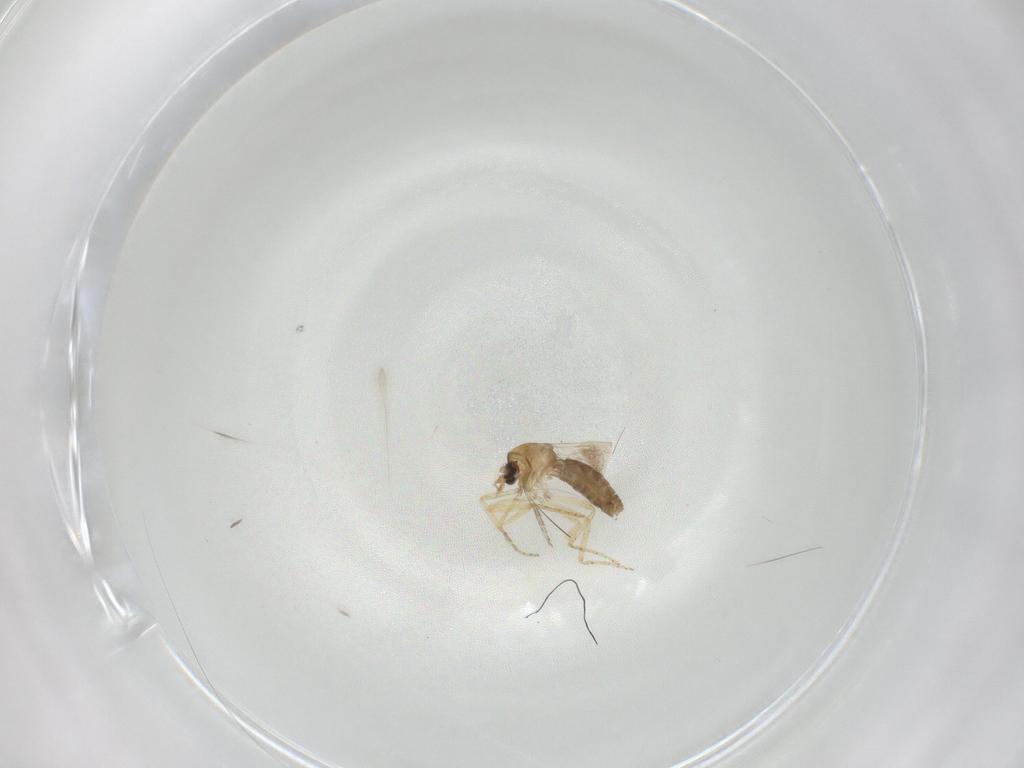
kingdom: Animalia
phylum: Arthropoda
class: Insecta
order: Diptera
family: Ceratopogonidae
